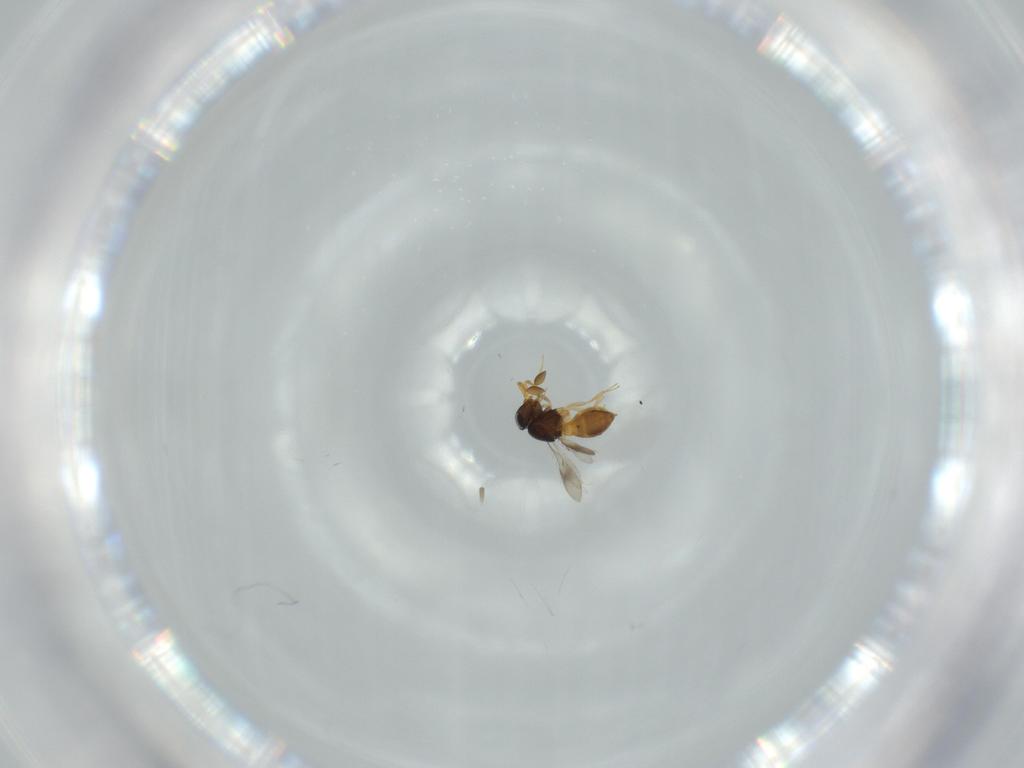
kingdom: Animalia
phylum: Arthropoda
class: Insecta
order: Hymenoptera
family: Scelionidae
